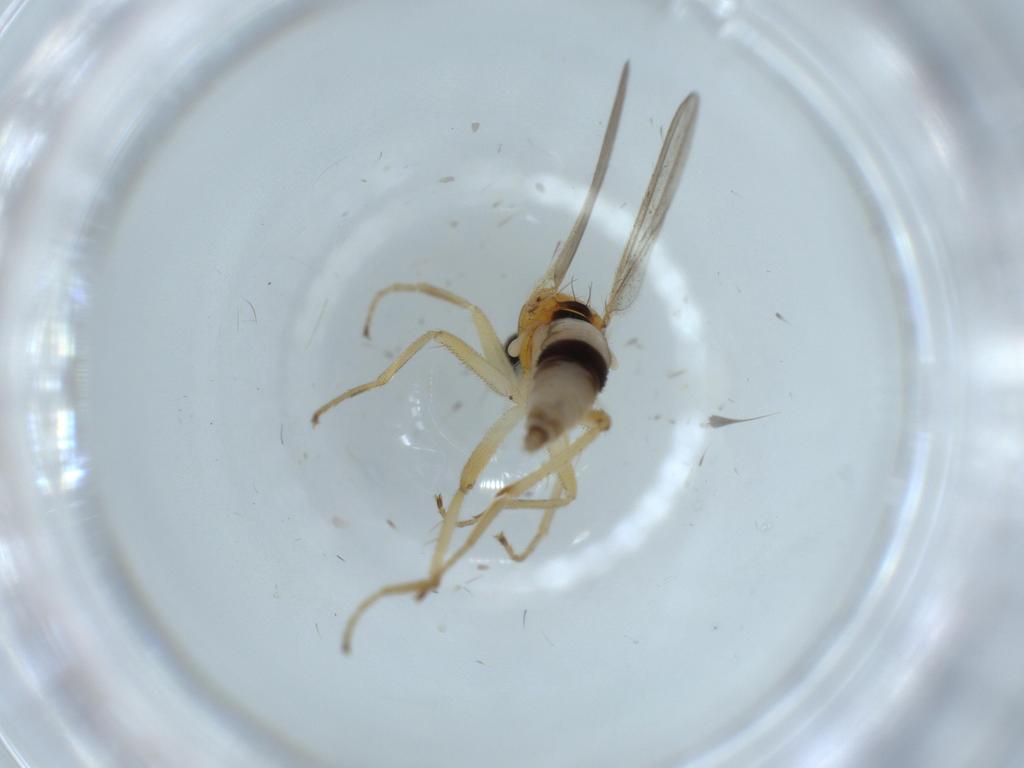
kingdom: Animalia
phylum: Arthropoda
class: Insecta
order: Diptera
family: Hybotidae
